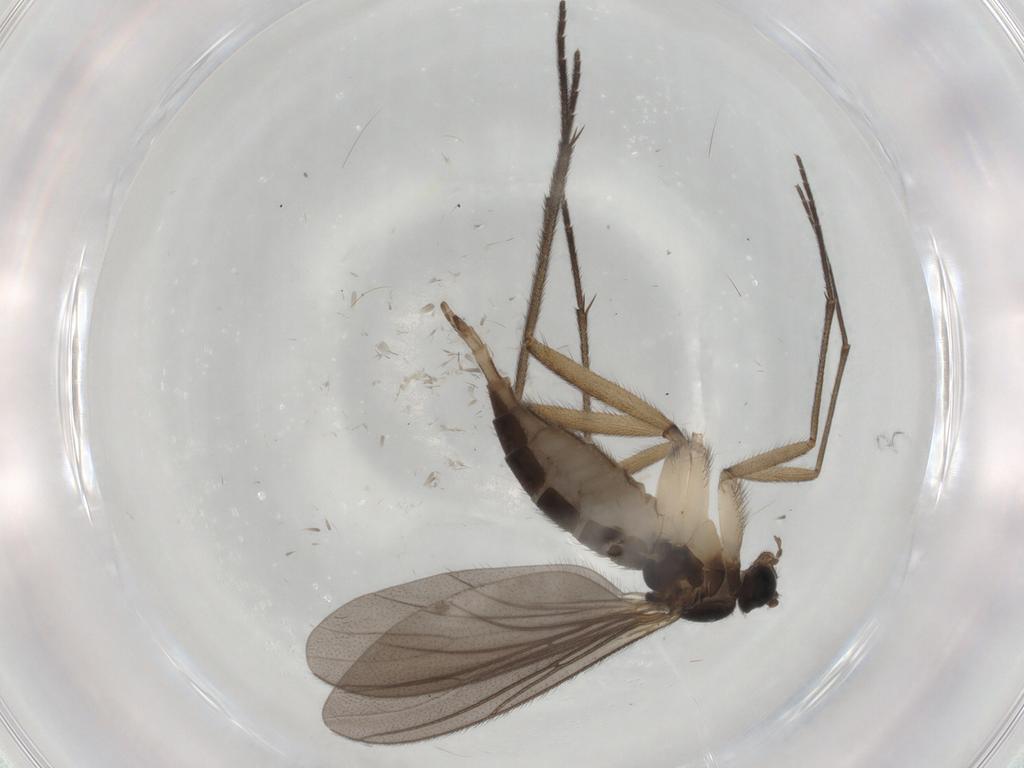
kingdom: Animalia
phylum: Arthropoda
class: Insecta
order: Diptera
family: Sciaridae
